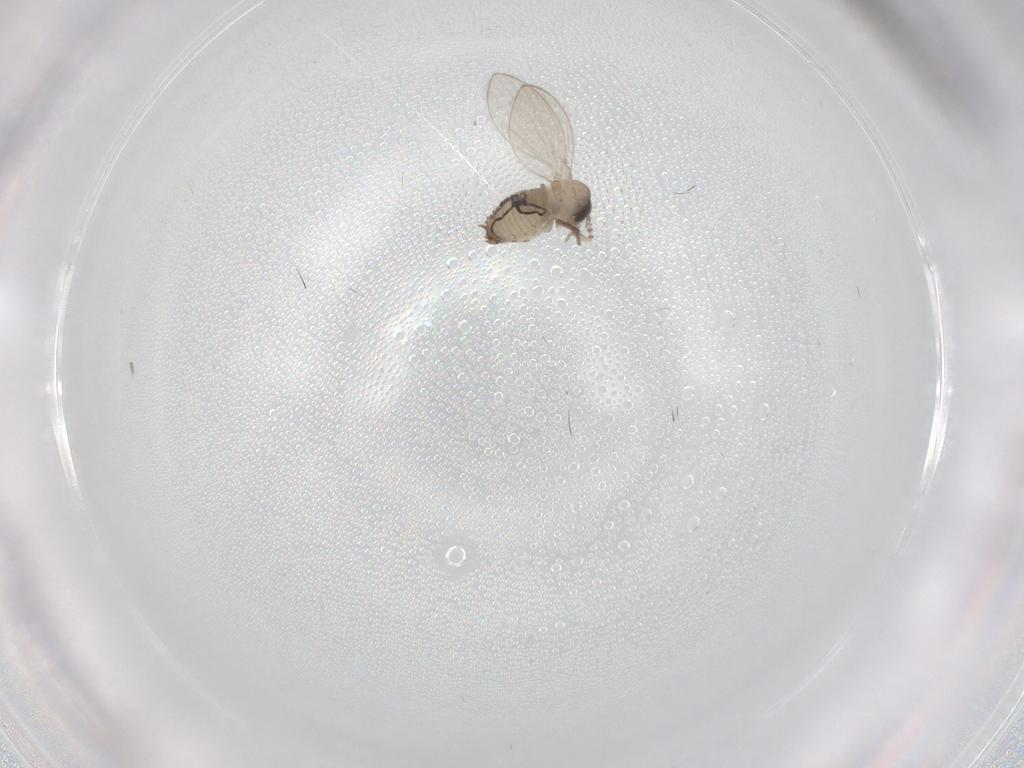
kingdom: Animalia
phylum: Arthropoda
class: Insecta
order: Diptera
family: Psychodidae
